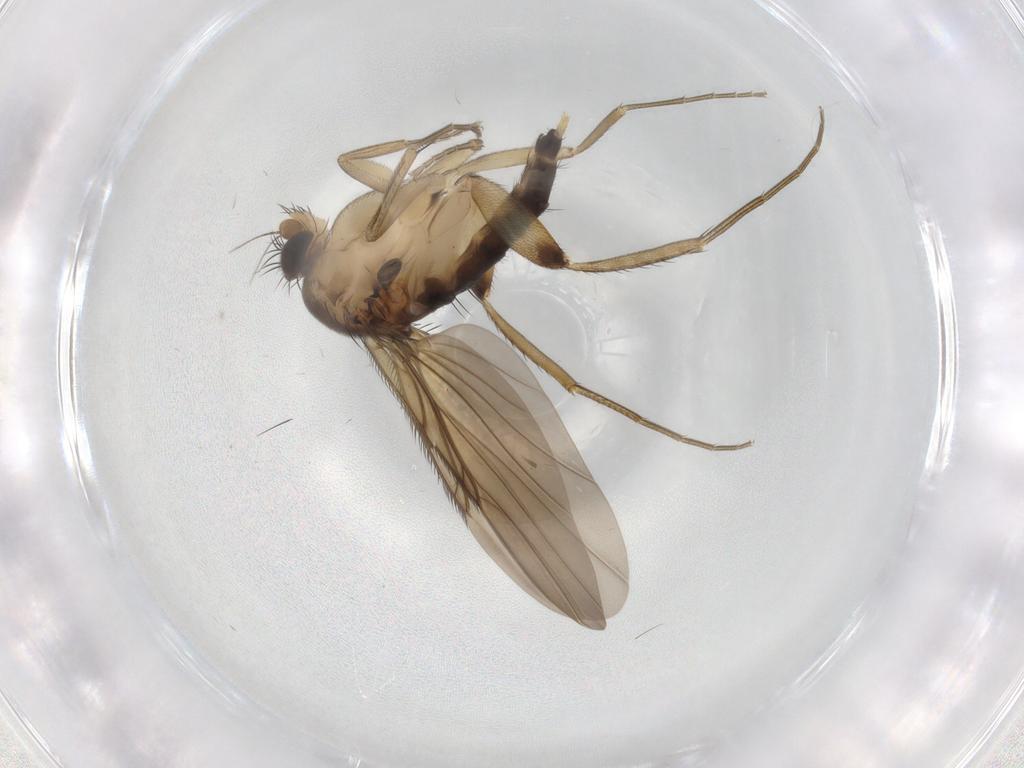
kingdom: Animalia
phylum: Arthropoda
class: Insecta
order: Diptera
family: Phoridae
